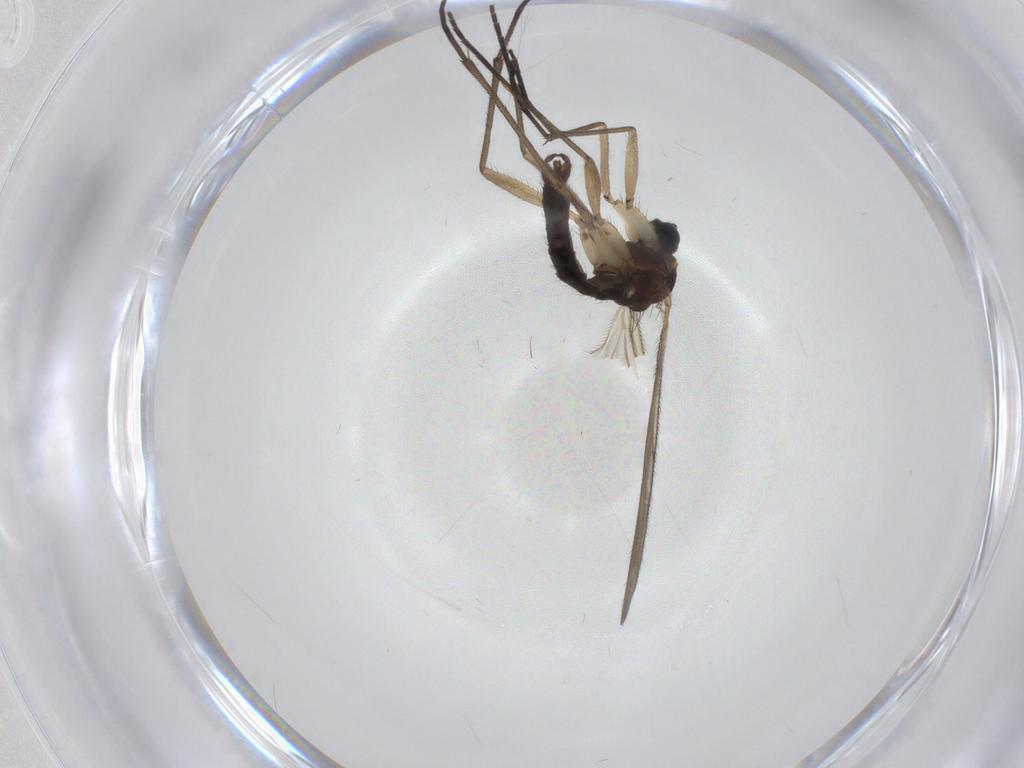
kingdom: Animalia
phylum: Arthropoda
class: Insecta
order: Diptera
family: Sciaridae
